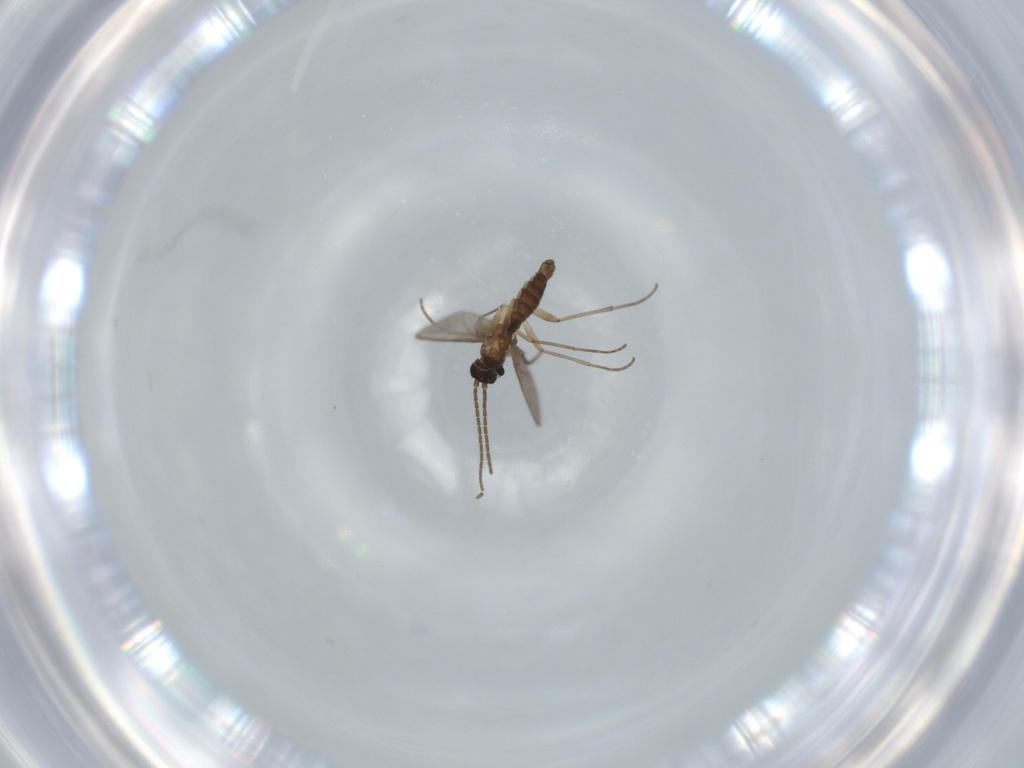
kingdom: Animalia
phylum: Arthropoda
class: Insecta
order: Diptera
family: Sciaridae
